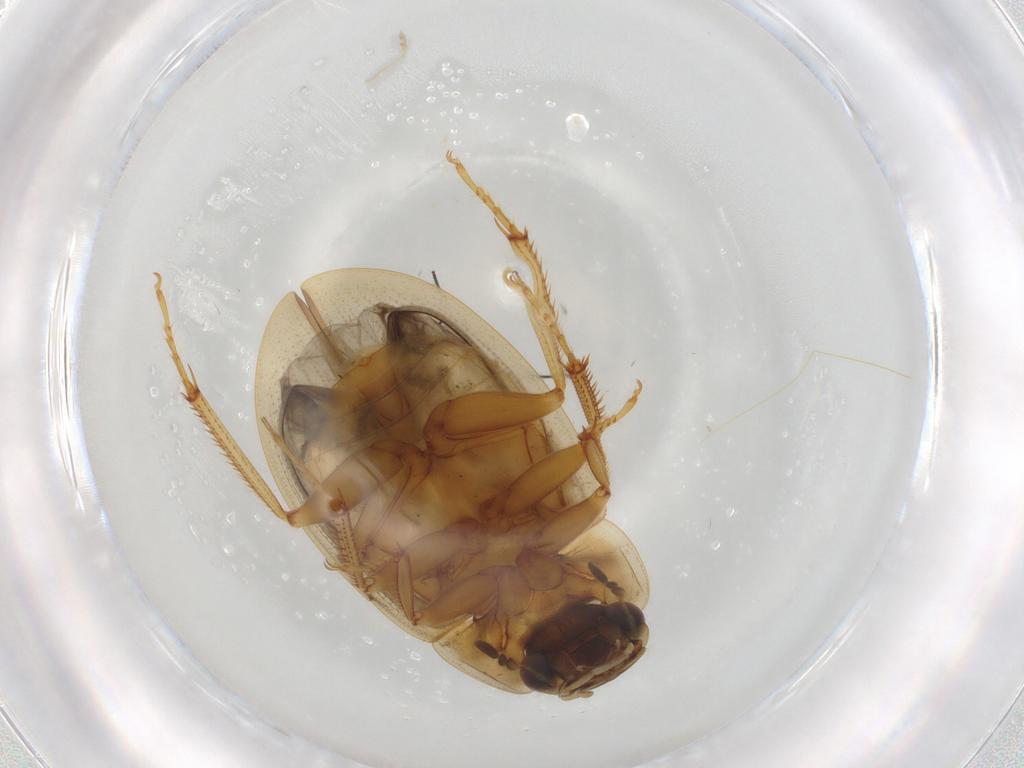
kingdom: Animalia
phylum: Arthropoda
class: Insecta
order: Coleoptera
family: Hydrophilidae
